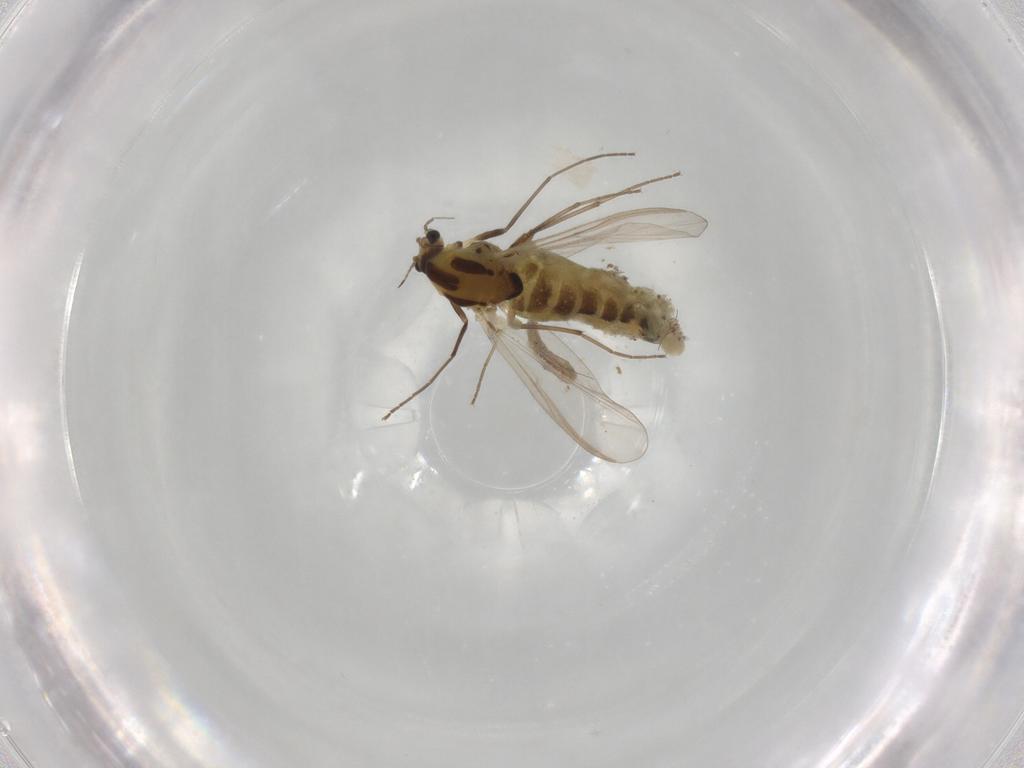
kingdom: Animalia
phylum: Arthropoda
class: Insecta
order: Diptera
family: Chironomidae
